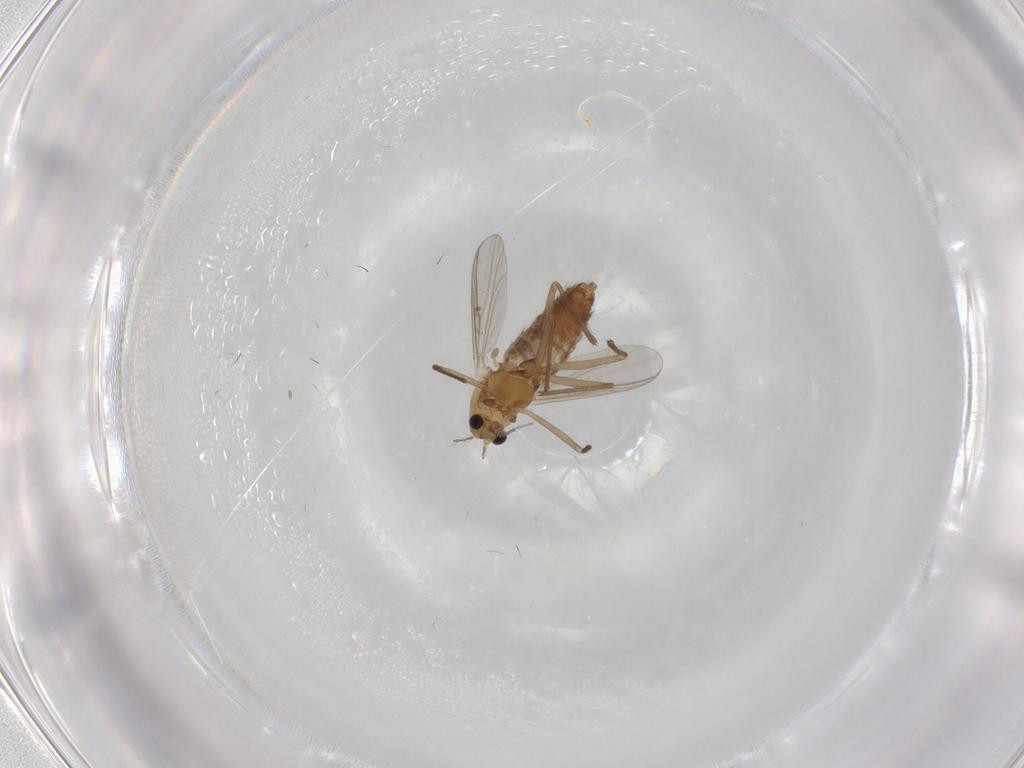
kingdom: Animalia
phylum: Arthropoda
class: Insecta
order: Diptera
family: Chironomidae
